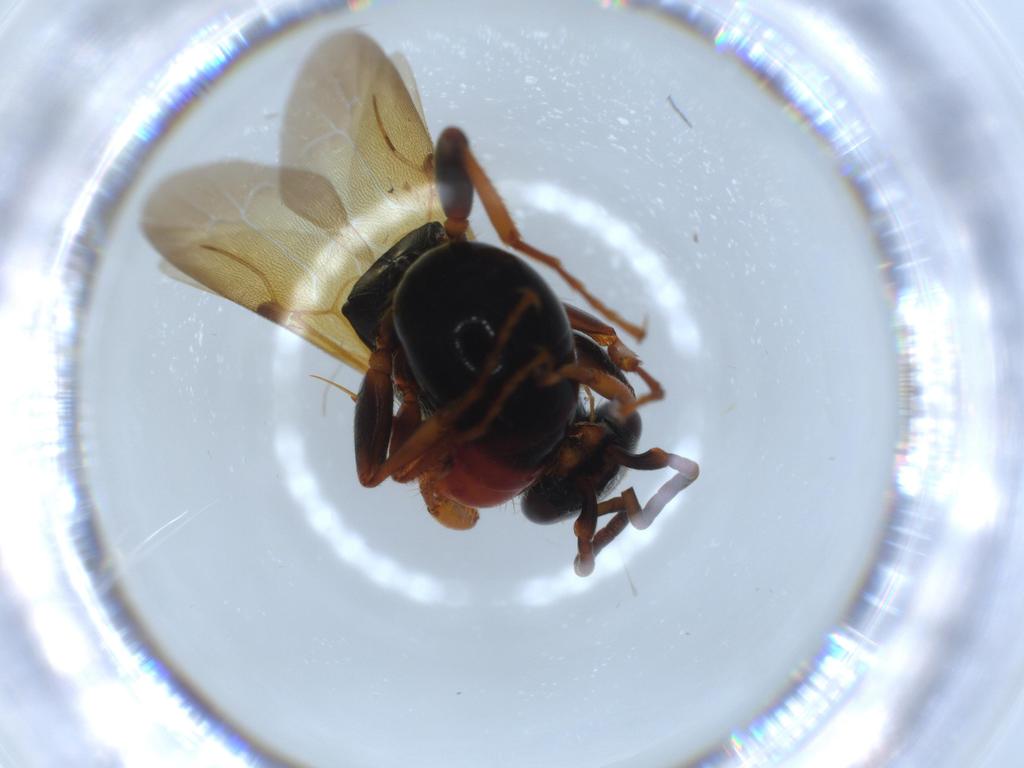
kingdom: Animalia
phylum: Arthropoda
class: Insecta
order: Hymenoptera
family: Bethylidae
